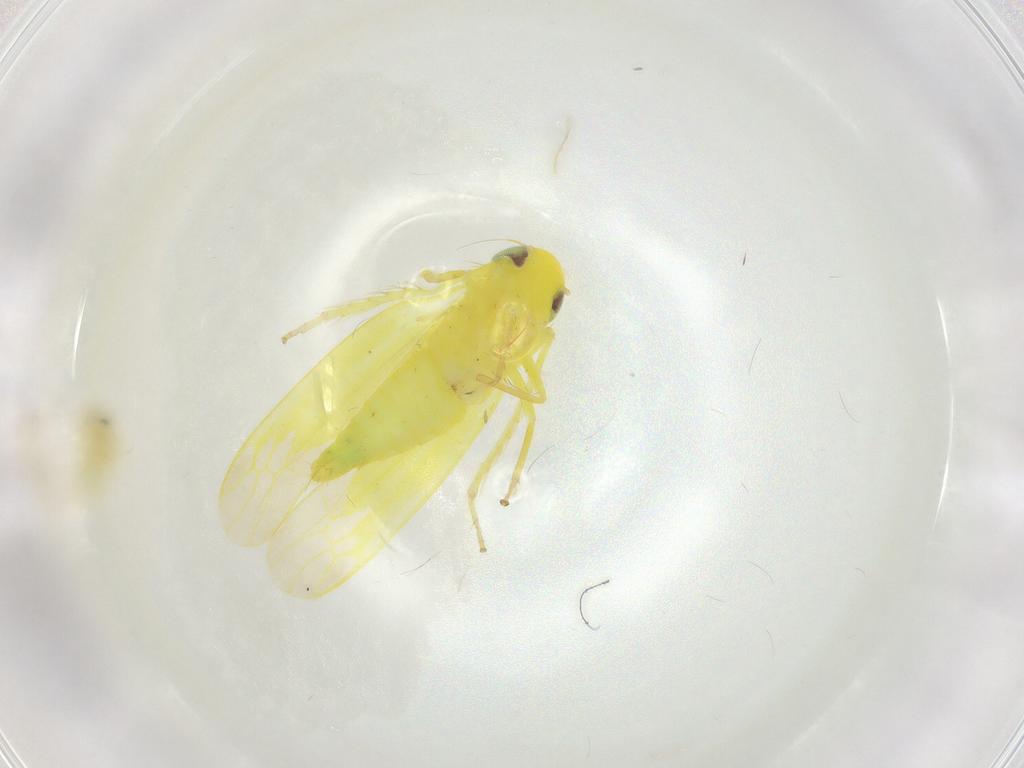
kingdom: Animalia
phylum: Arthropoda
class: Insecta
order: Hemiptera
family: Cicadellidae
